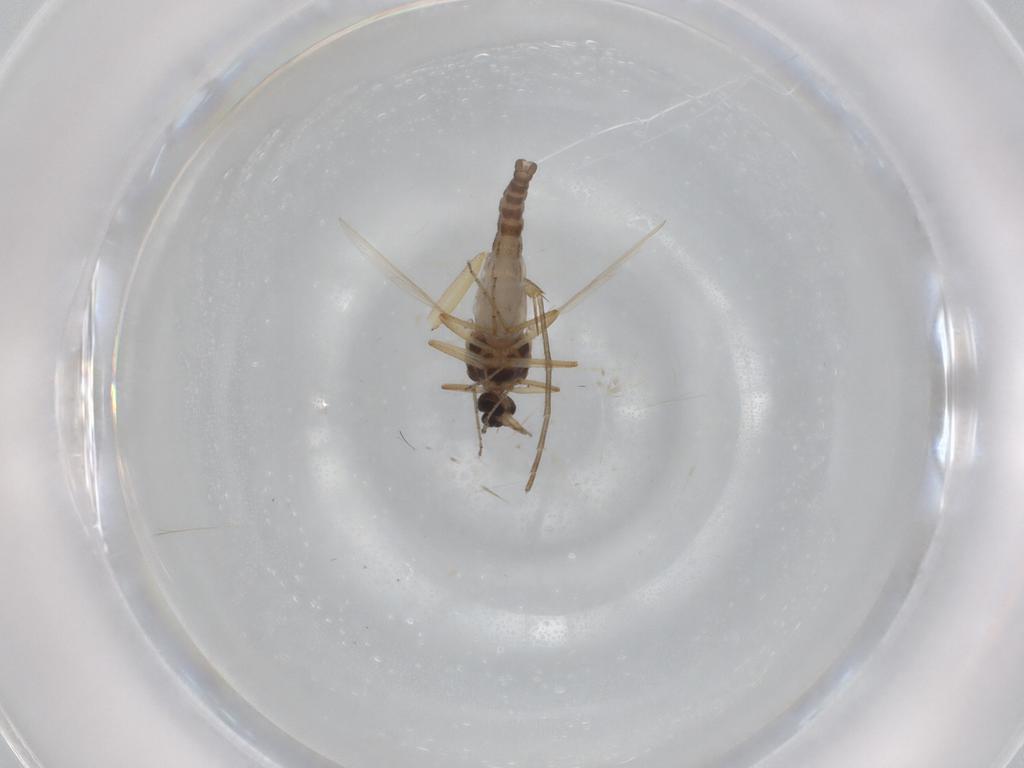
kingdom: Animalia
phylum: Arthropoda
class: Insecta
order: Diptera
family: Mycetophilidae
